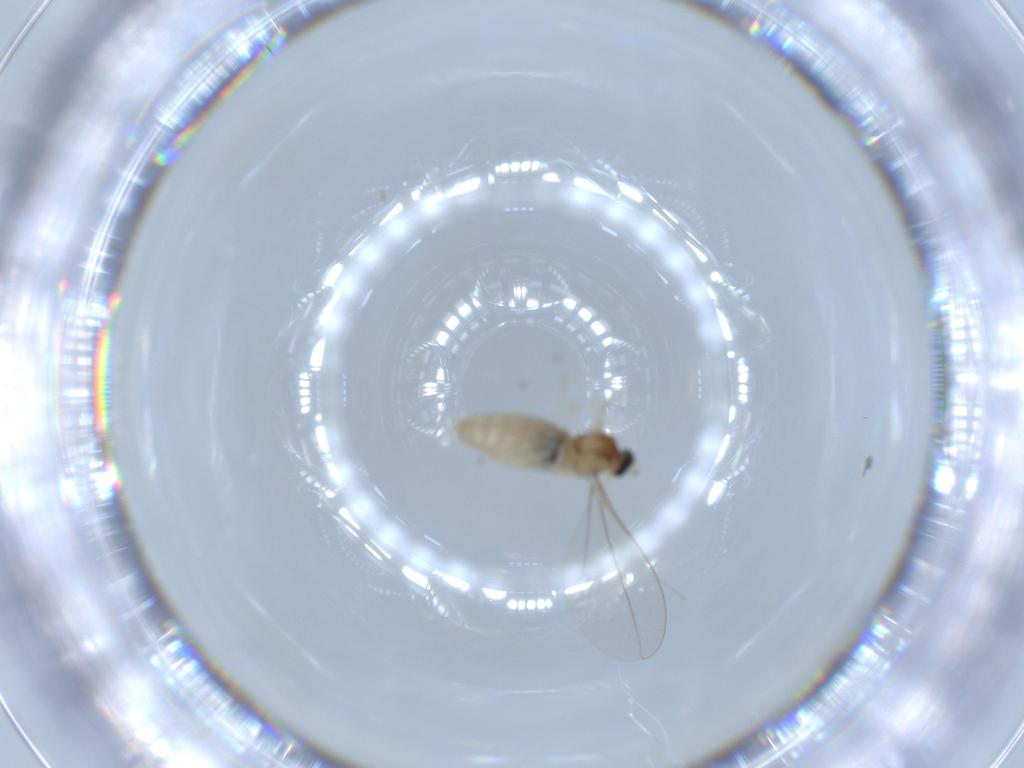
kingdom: Animalia
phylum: Arthropoda
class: Insecta
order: Diptera
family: Cecidomyiidae
